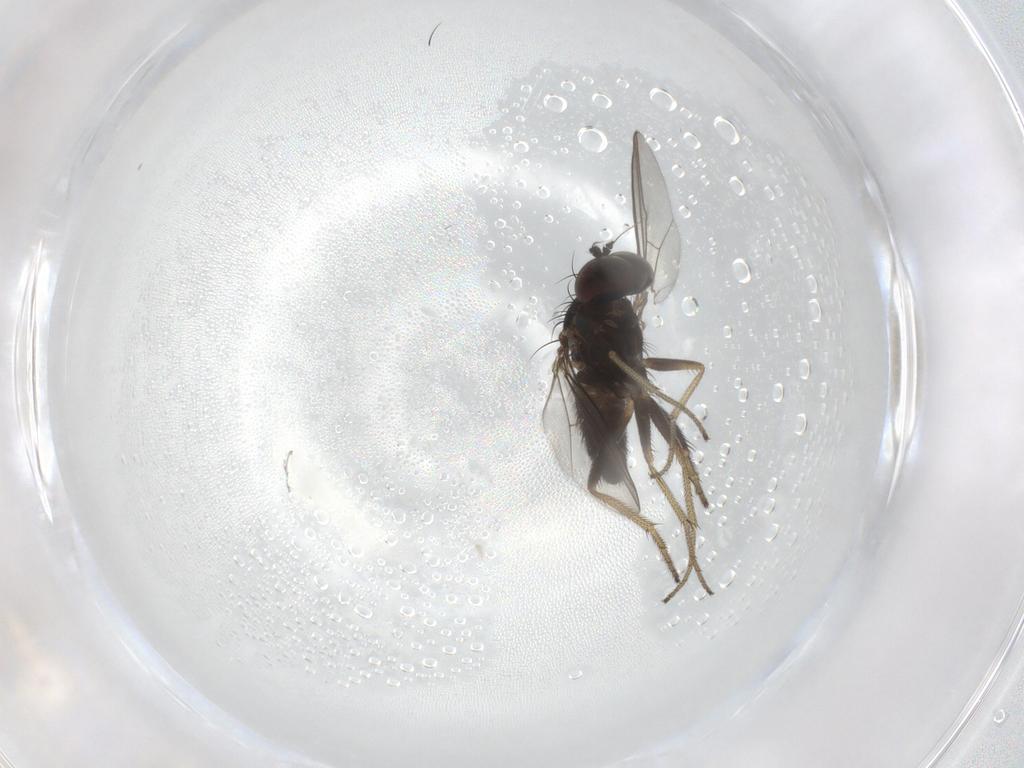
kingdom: Animalia
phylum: Arthropoda
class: Insecta
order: Diptera
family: Dolichopodidae
